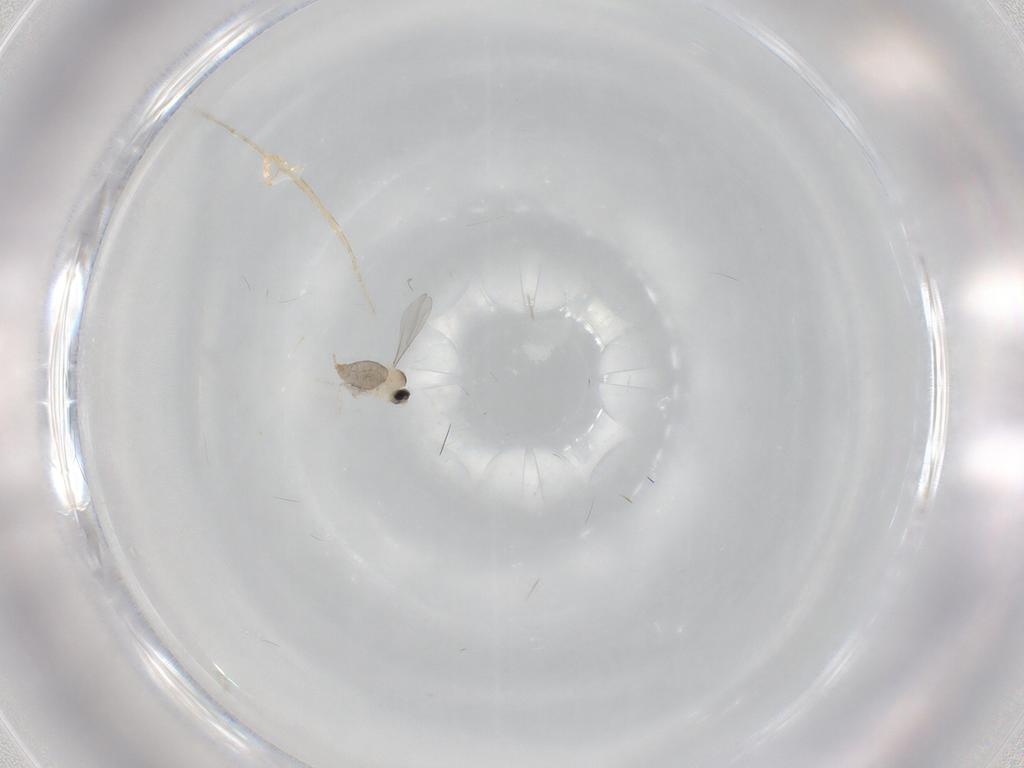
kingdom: Animalia
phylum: Arthropoda
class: Insecta
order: Diptera
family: Cecidomyiidae
